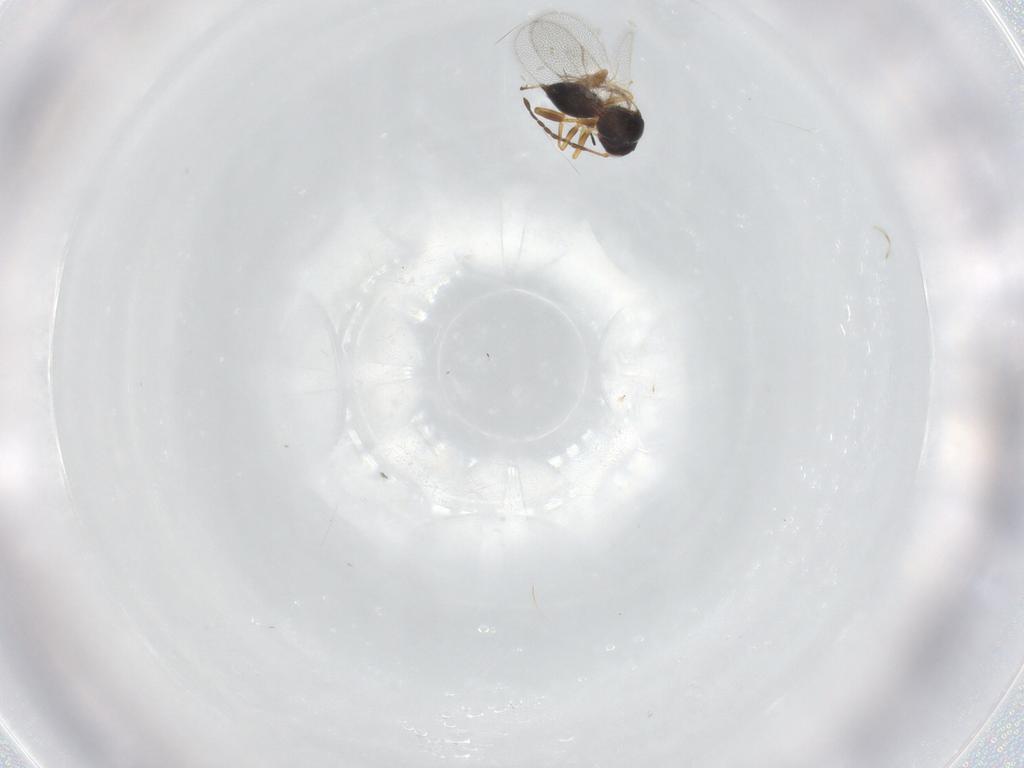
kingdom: Animalia
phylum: Arthropoda
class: Insecta
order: Hymenoptera
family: Figitidae
